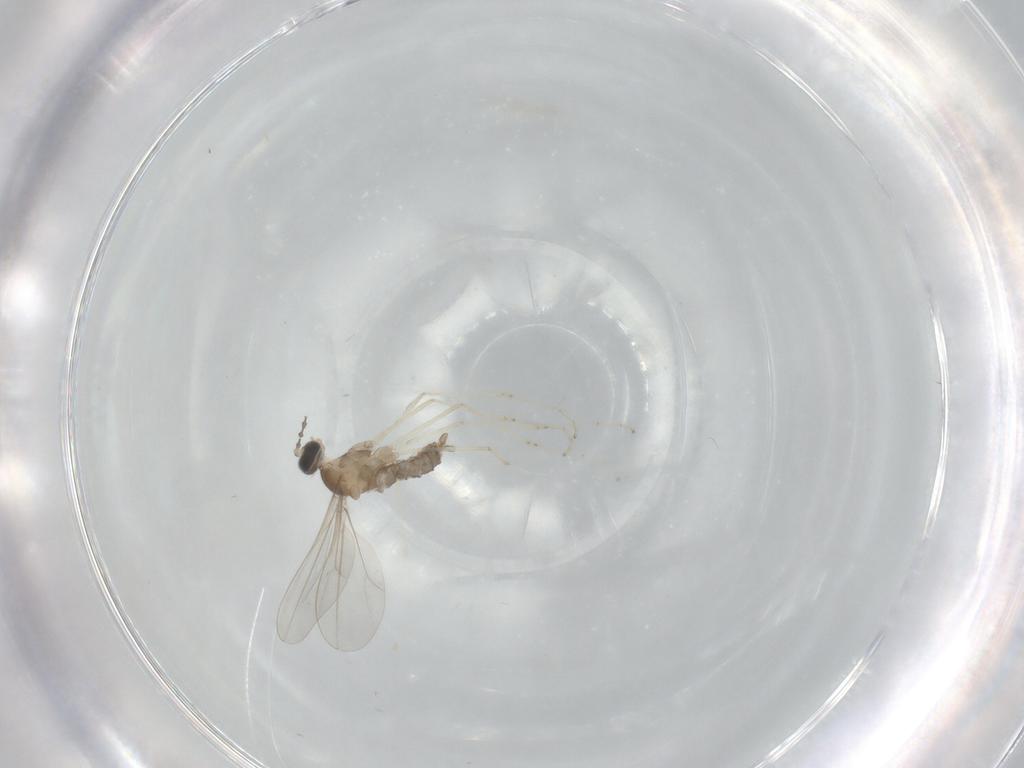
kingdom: Animalia
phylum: Arthropoda
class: Insecta
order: Diptera
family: Cecidomyiidae
